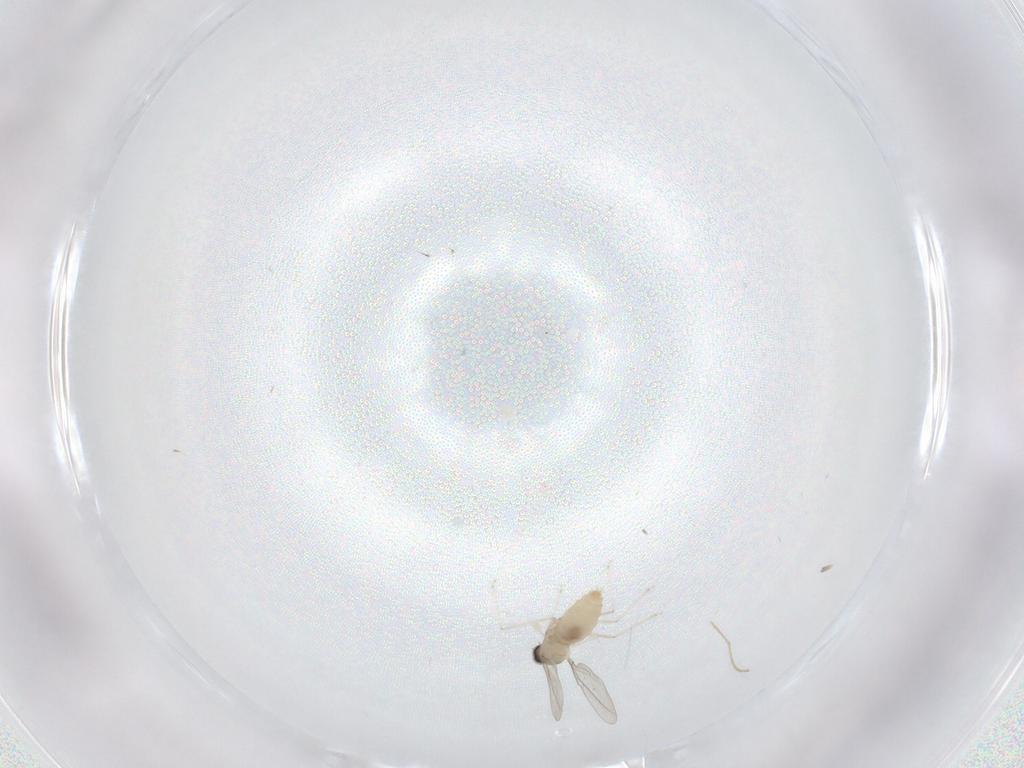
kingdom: Animalia
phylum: Arthropoda
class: Insecta
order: Diptera
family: Chironomidae
